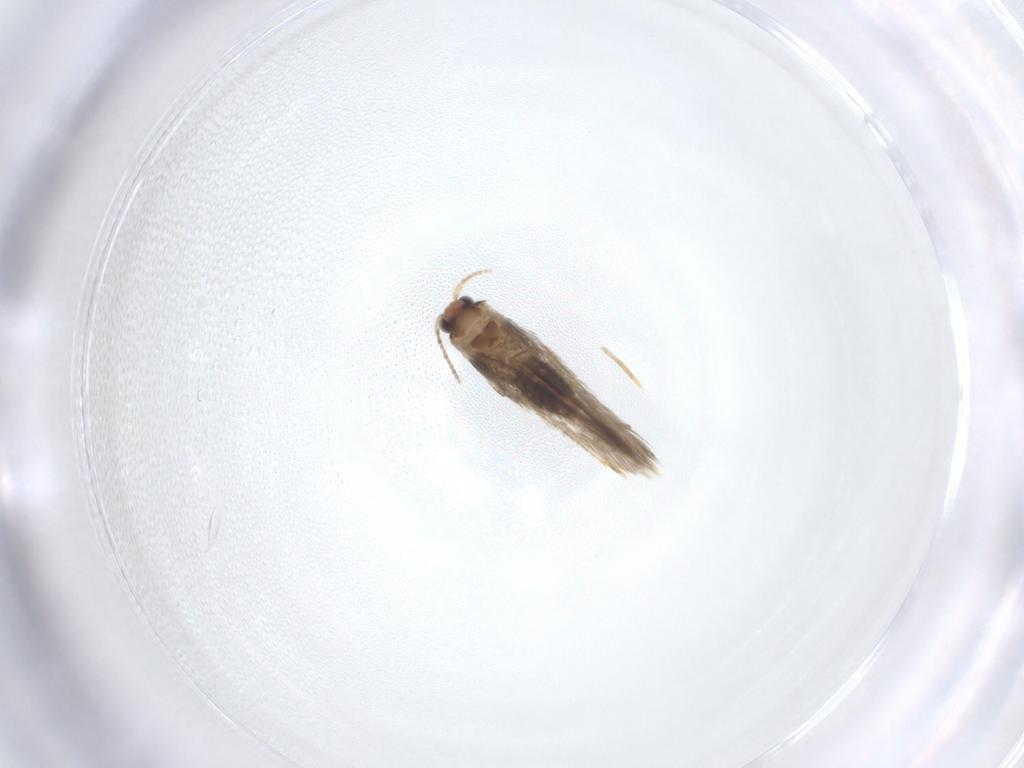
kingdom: Animalia
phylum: Arthropoda
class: Insecta
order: Lepidoptera
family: Nepticulidae
